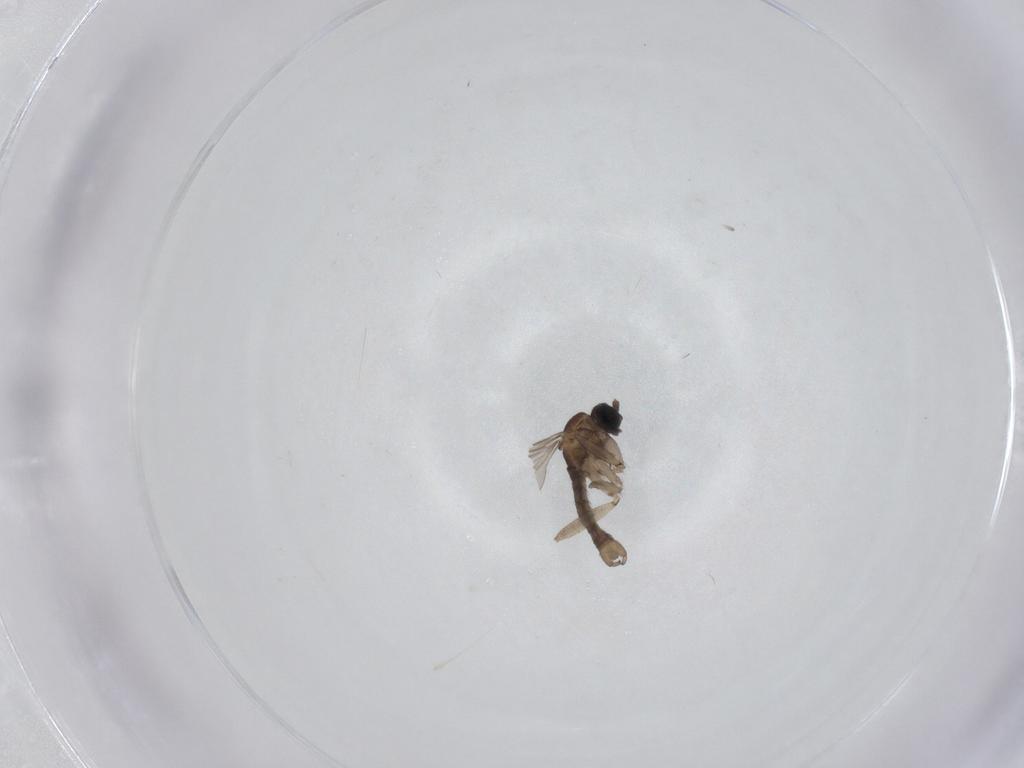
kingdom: Animalia
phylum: Arthropoda
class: Insecta
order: Diptera
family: Sciaridae
